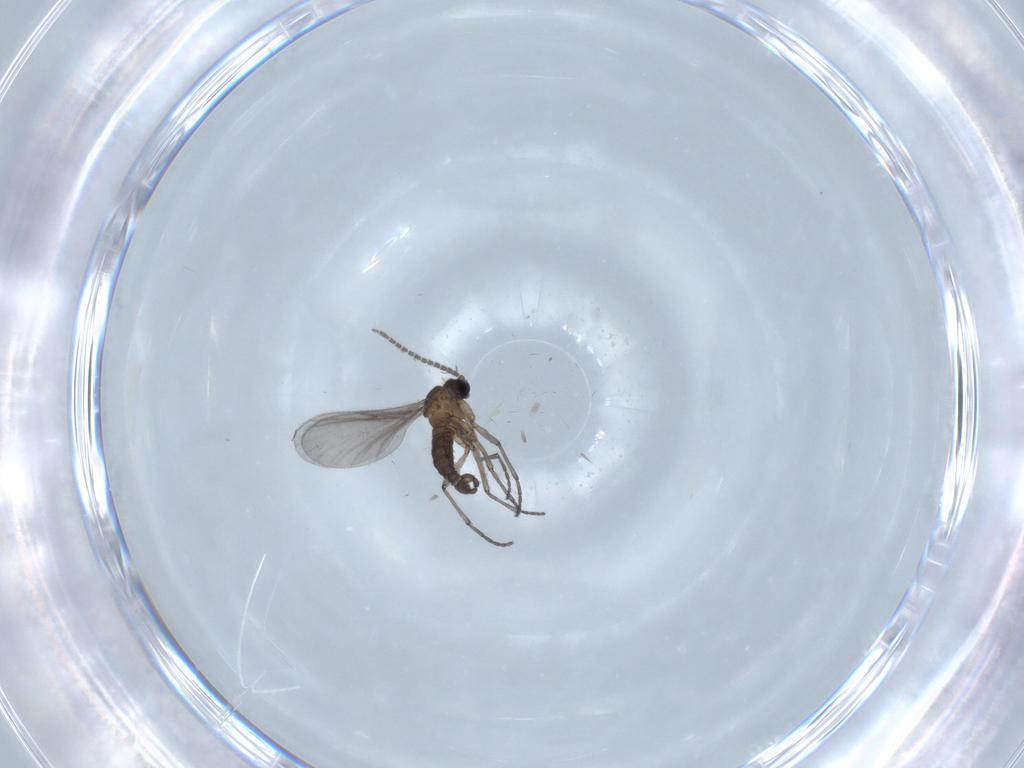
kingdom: Animalia
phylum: Arthropoda
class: Insecta
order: Diptera
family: Sciaridae
